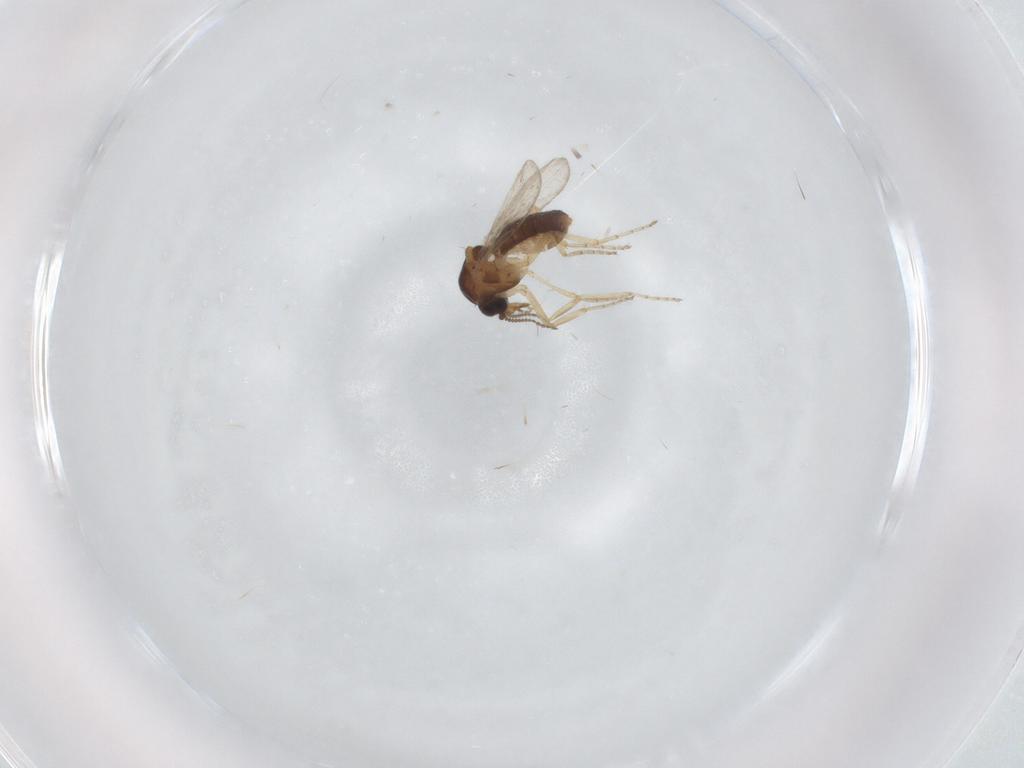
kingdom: Animalia
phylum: Arthropoda
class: Insecta
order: Diptera
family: Ceratopogonidae
